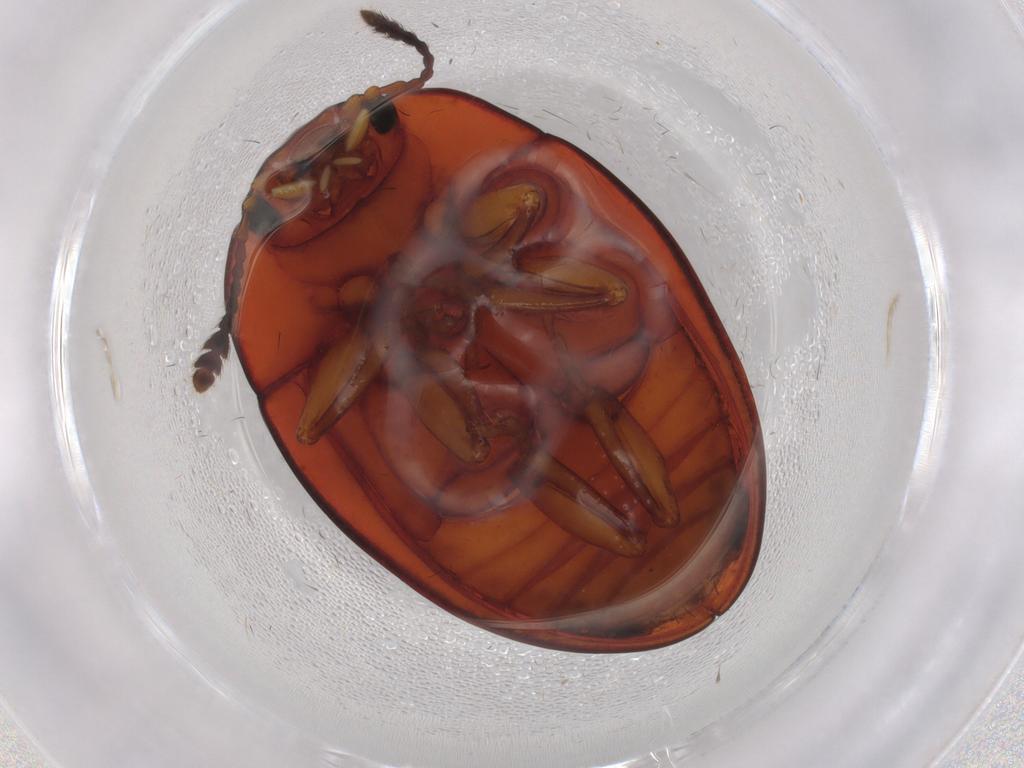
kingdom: Animalia
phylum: Arthropoda
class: Insecta
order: Coleoptera
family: Erotylidae
